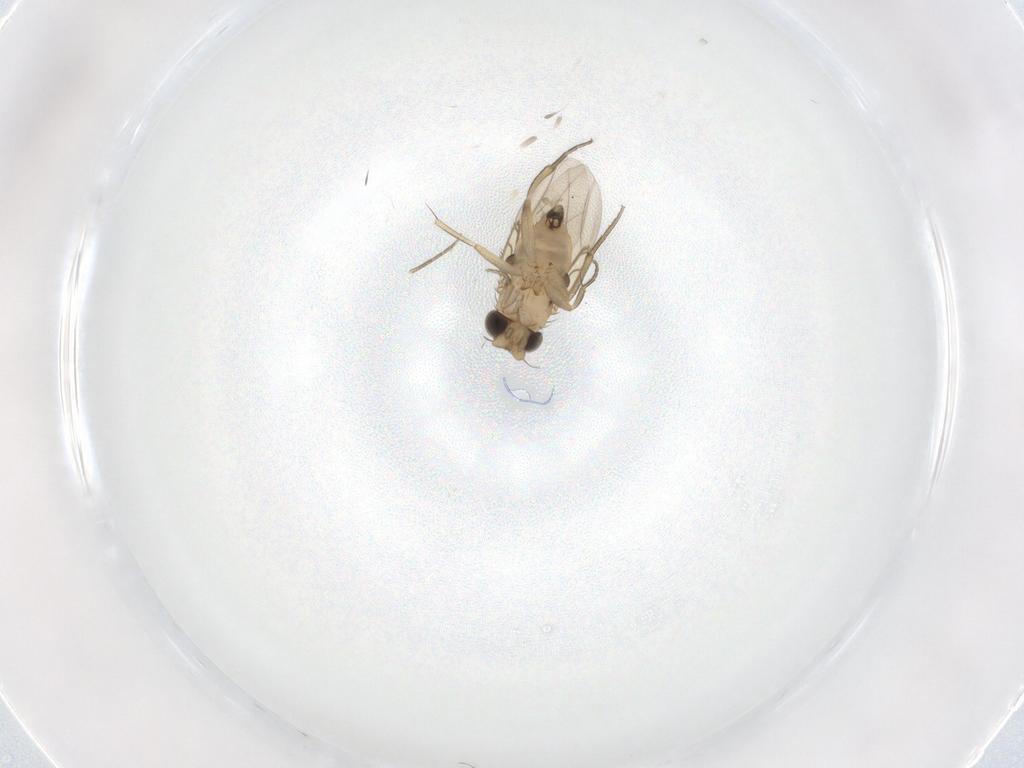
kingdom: Animalia
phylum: Arthropoda
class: Insecta
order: Diptera
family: Phoridae
